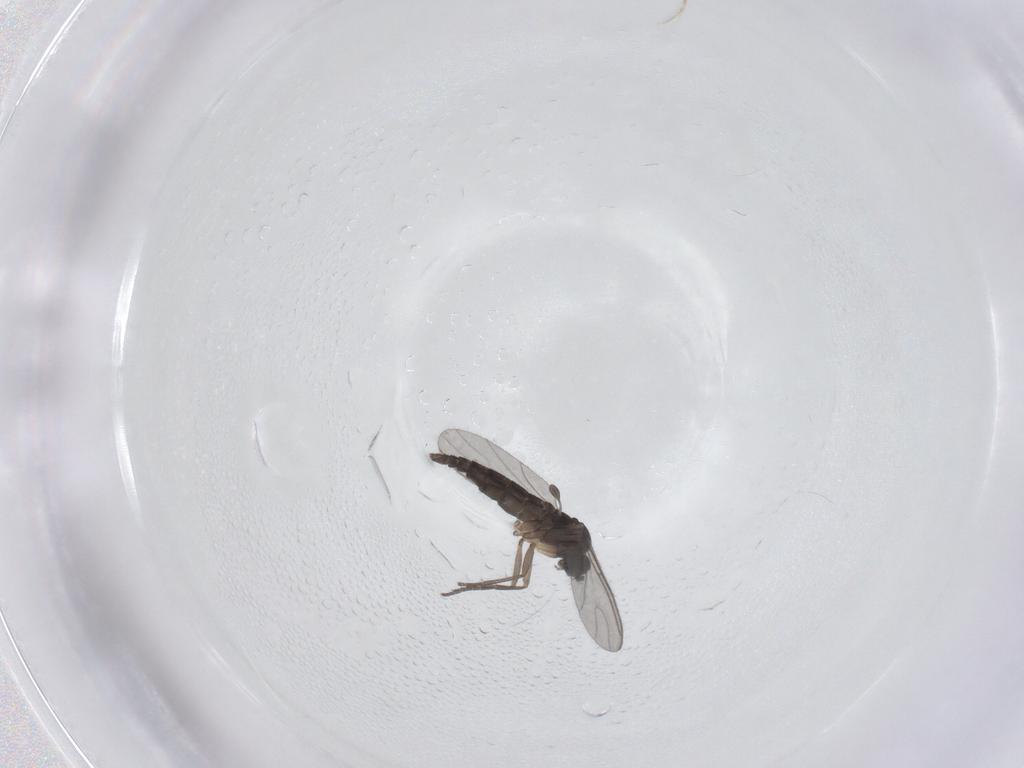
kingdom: Animalia
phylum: Arthropoda
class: Insecta
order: Diptera
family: Sciaridae
